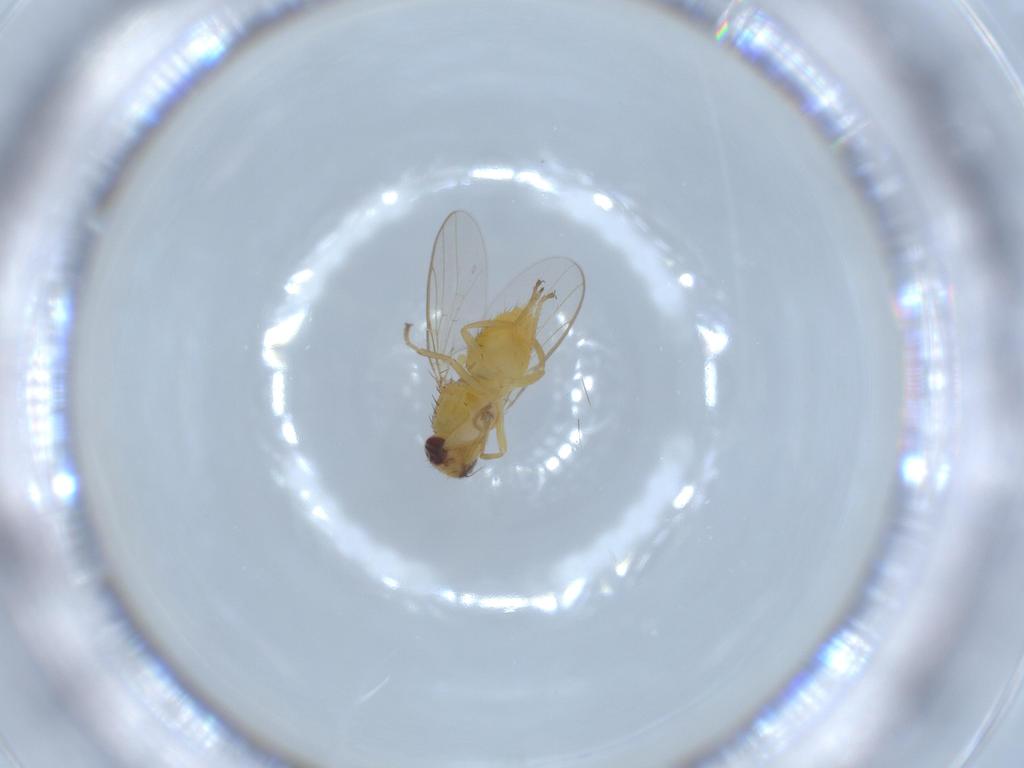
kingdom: Animalia
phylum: Arthropoda
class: Insecta
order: Diptera
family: Chloropidae
